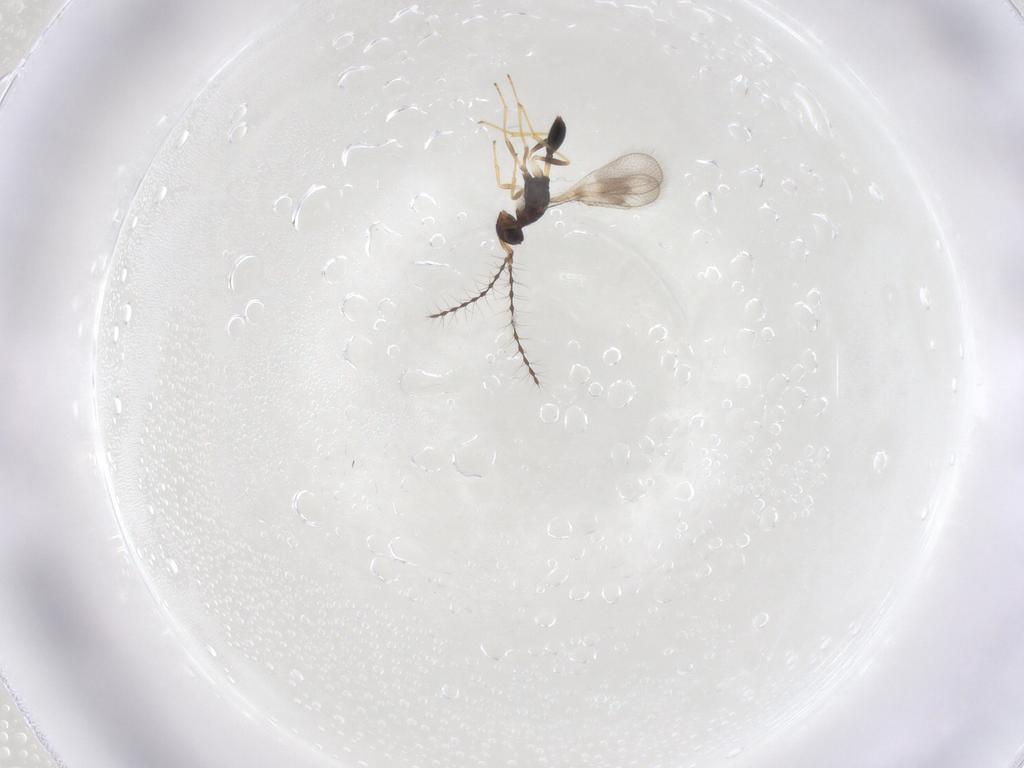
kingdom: Animalia
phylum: Arthropoda
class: Insecta
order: Hymenoptera
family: Diparidae
